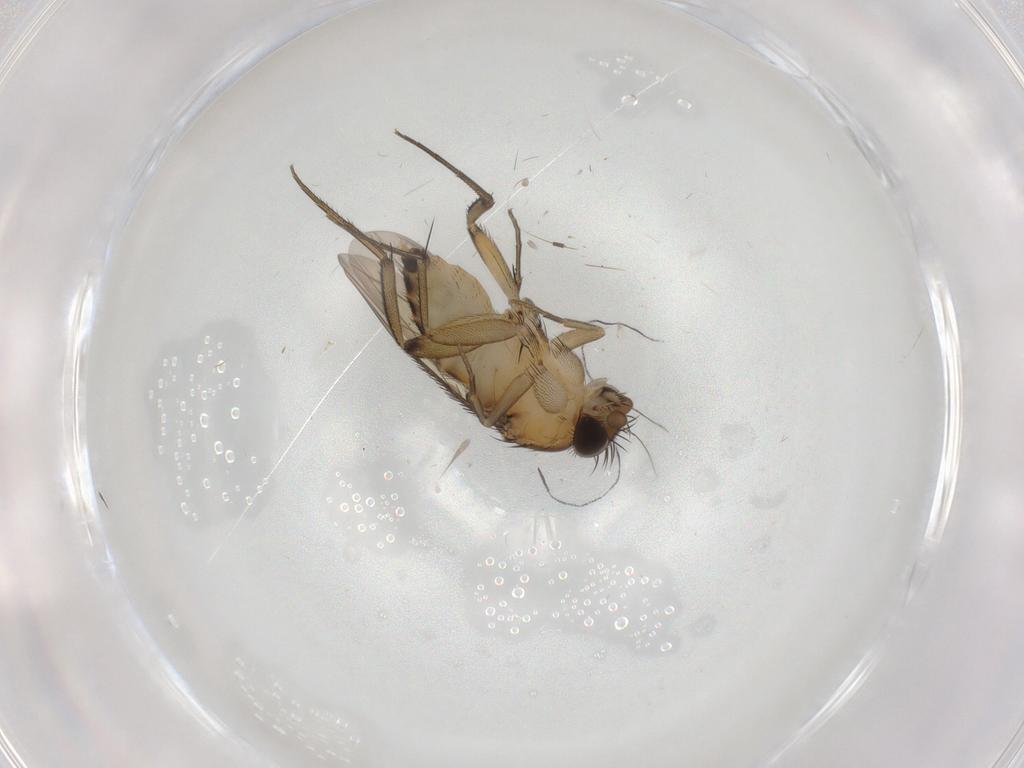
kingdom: Animalia
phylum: Arthropoda
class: Insecta
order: Diptera
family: Phoridae
